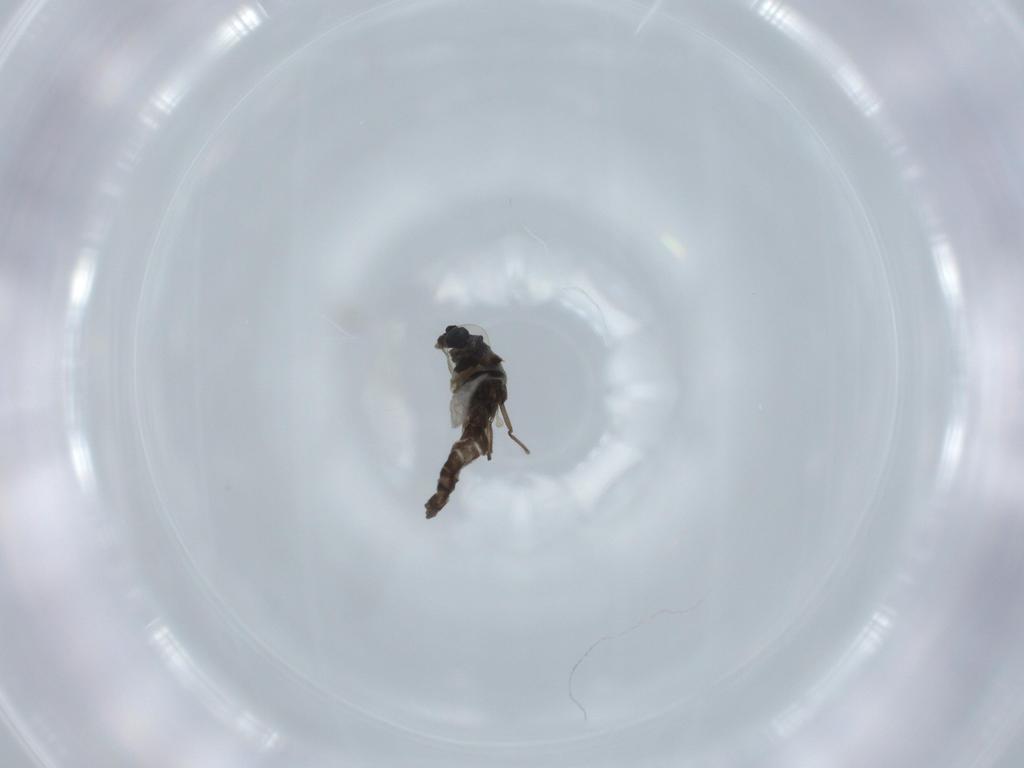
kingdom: Animalia
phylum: Arthropoda
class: Insecta
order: Diptera
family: Chironomidae
